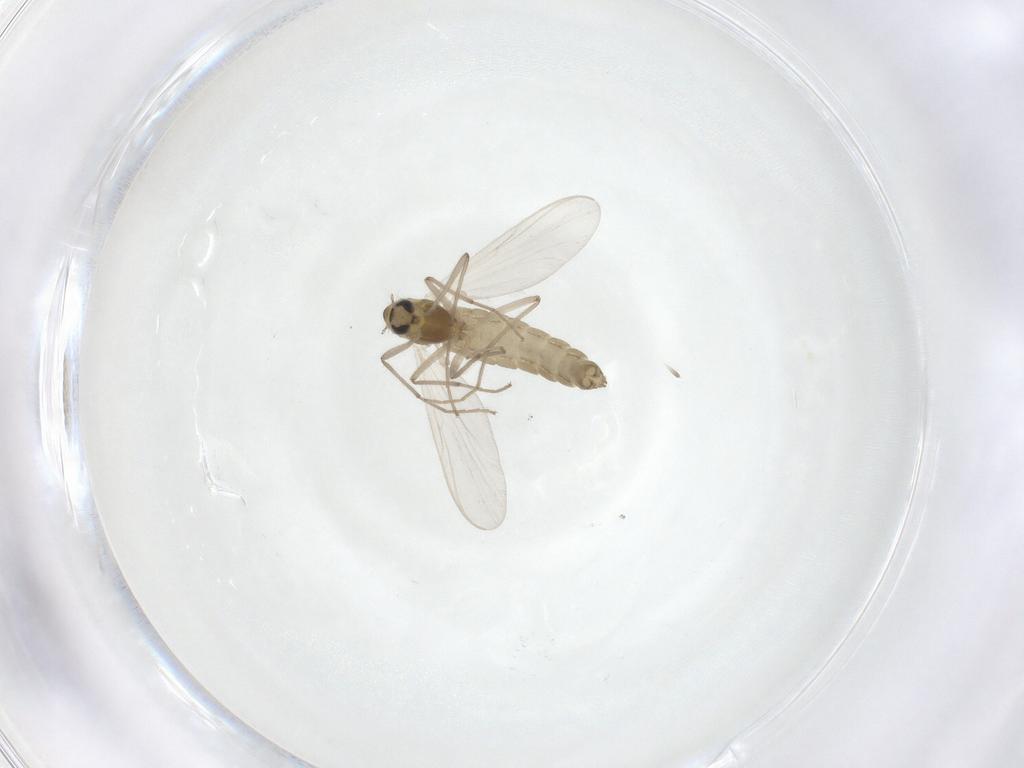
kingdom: Animalia
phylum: Arthropoda
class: Insecta
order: Diptera
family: Chironomidae
